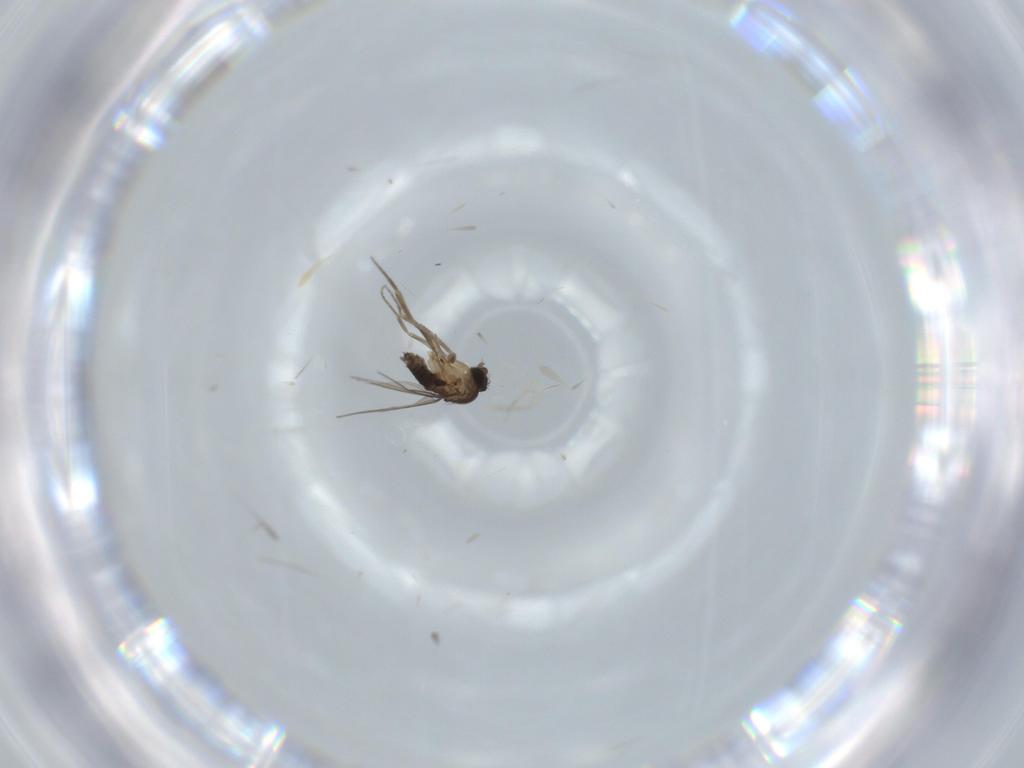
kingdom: Animalia
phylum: Arthropoda
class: Insecta
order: Diptera
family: Phoridae
